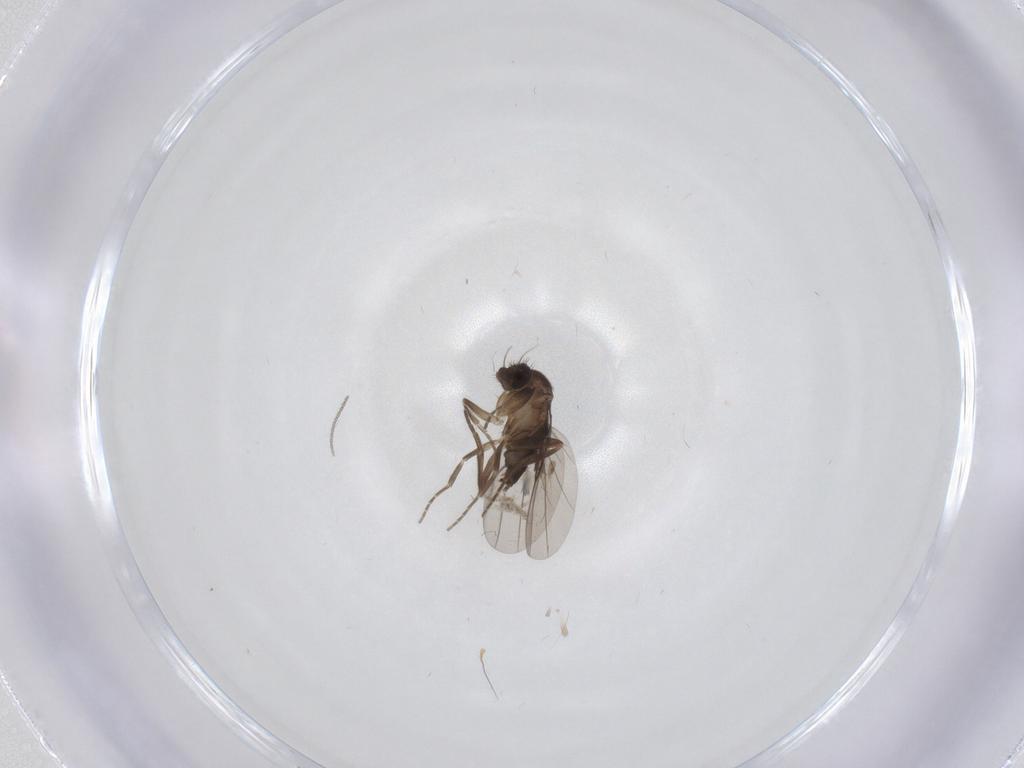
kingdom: Animalia
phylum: Arthropoda
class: Insecta
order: Diptera
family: Cecidomyiidae
